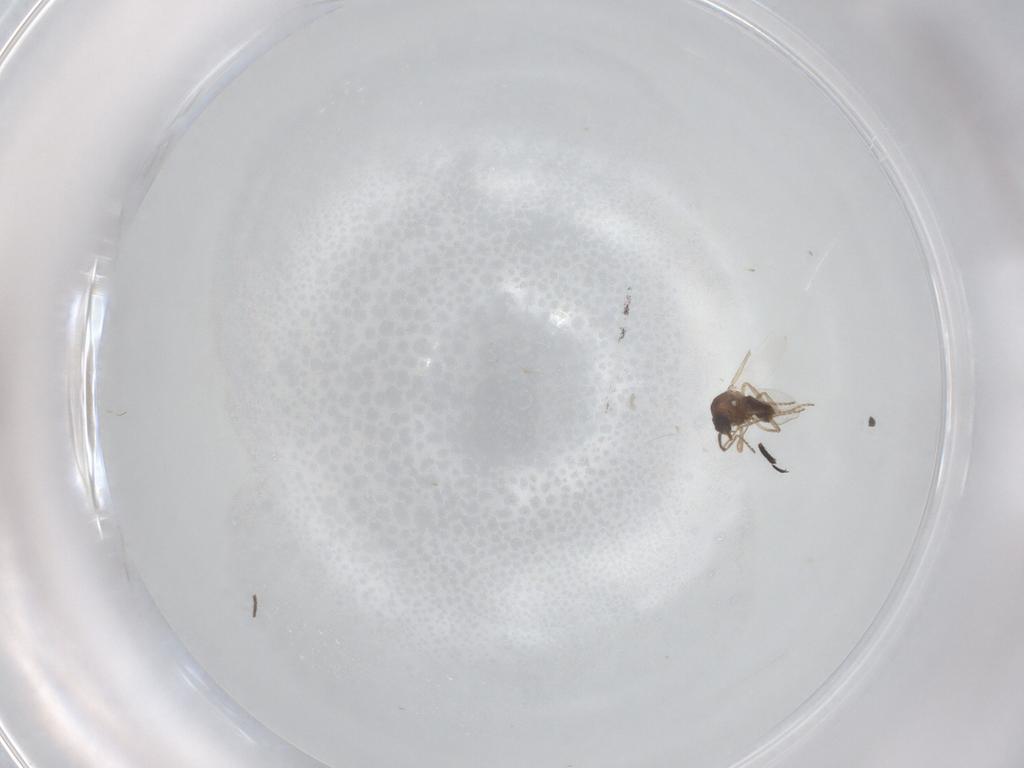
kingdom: Animalia
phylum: Arthropoda
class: Insecta
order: Diptera
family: Ceratopogonidae
